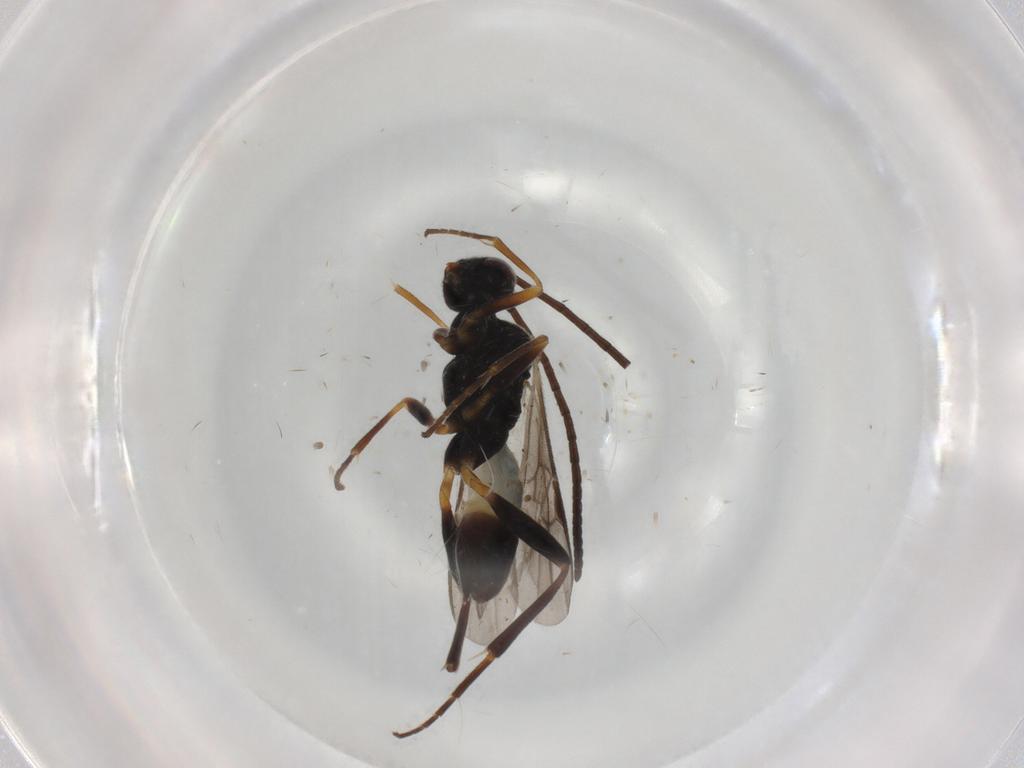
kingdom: Animalia
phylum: Arthropoda
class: Insecta
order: Hymenoptera
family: Braconidae
